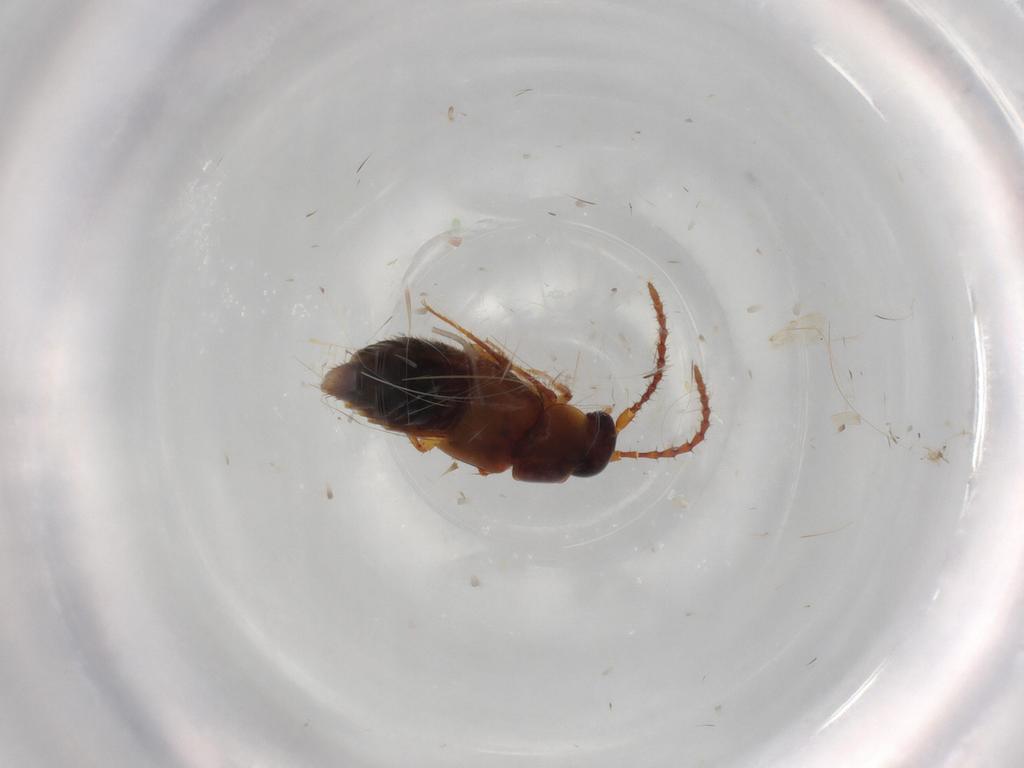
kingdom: Animalia
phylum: Arthropoda
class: Insecta
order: Coleoptera
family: Staphylinidae
